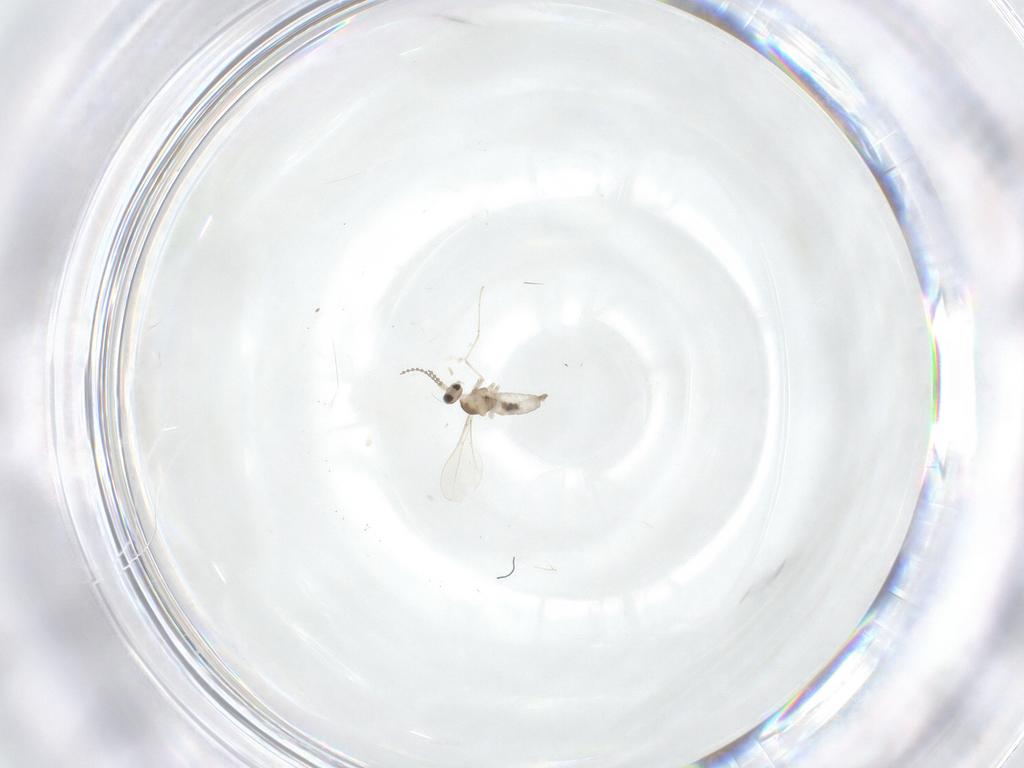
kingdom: Animalia
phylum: Arthropoda
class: Insecta
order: Diptera
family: Cecidomyiidae
